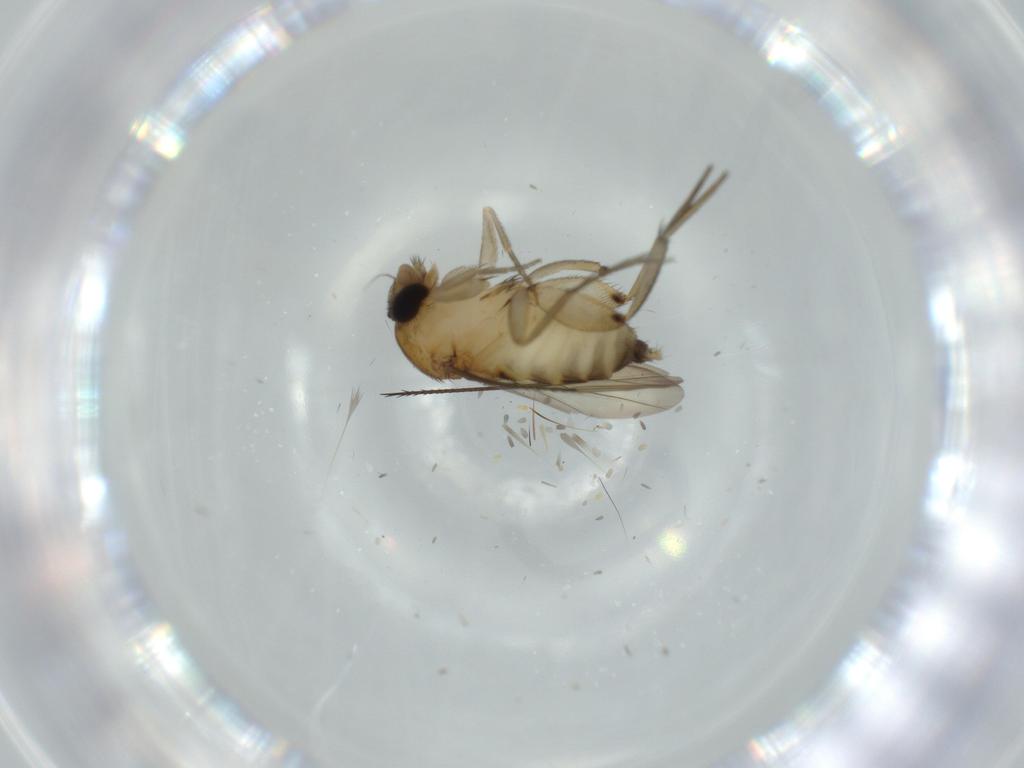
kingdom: Animalia
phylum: Arthropoda
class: Insecta
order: Diptera
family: Phoridae
